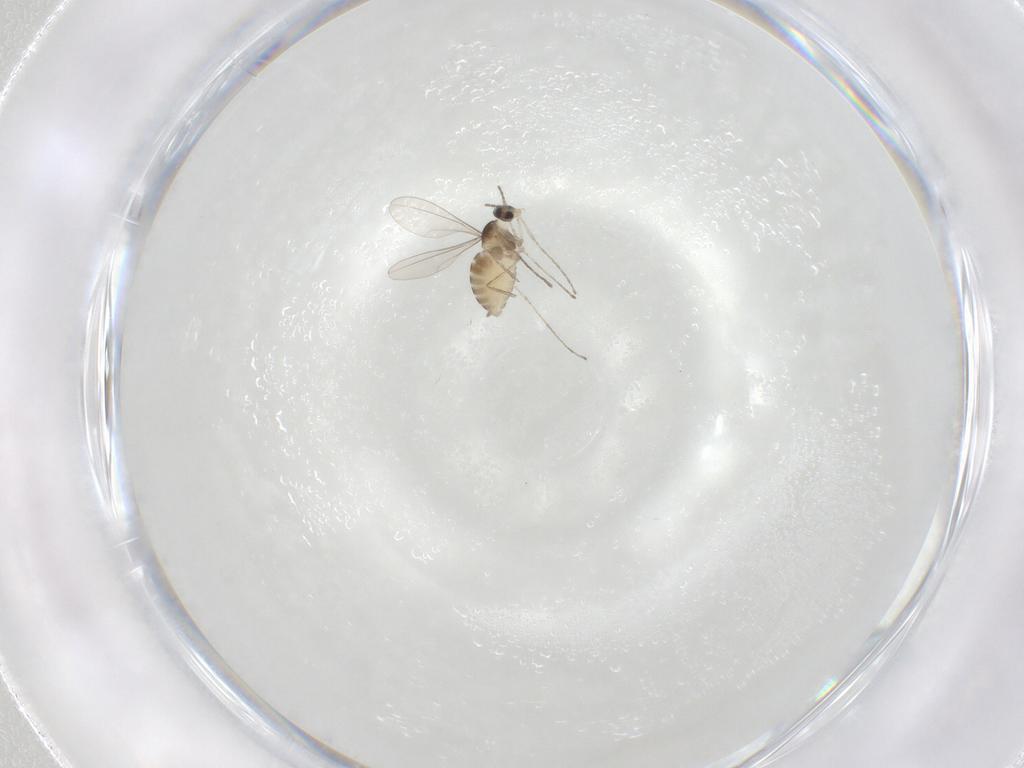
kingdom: Animalia
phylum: Arthropoda
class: Insecta
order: Diptera
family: Cecidomyiidae
